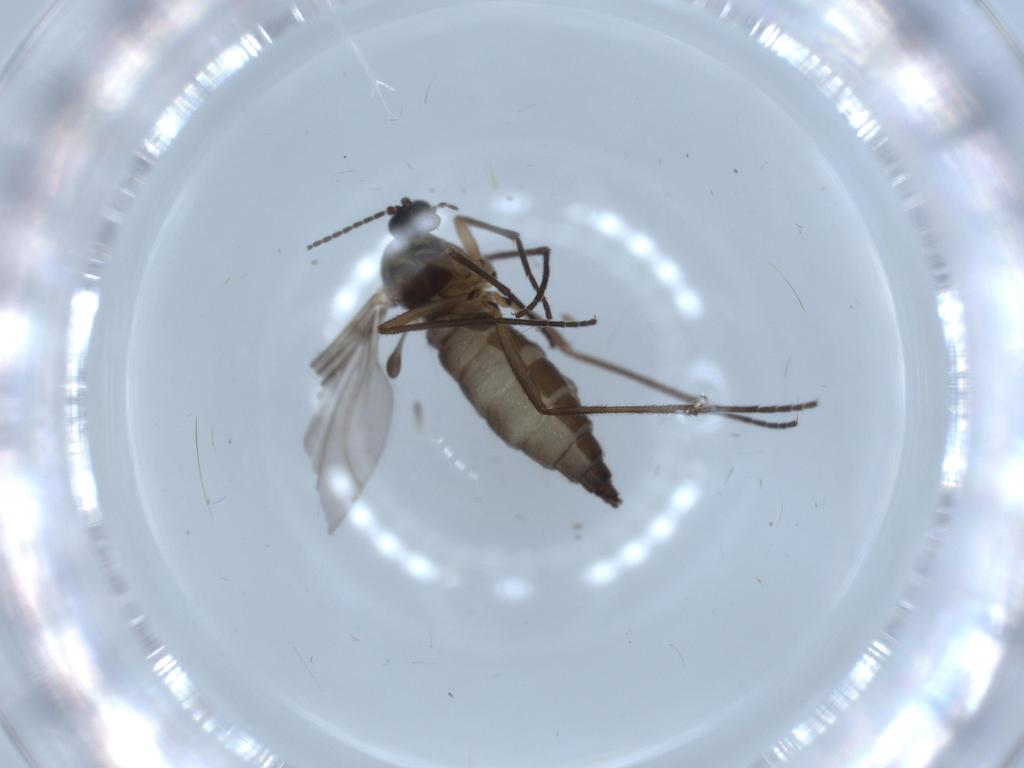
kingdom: Animalia
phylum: Arthropoda
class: Insecta
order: Diptera
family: Sciaridae
